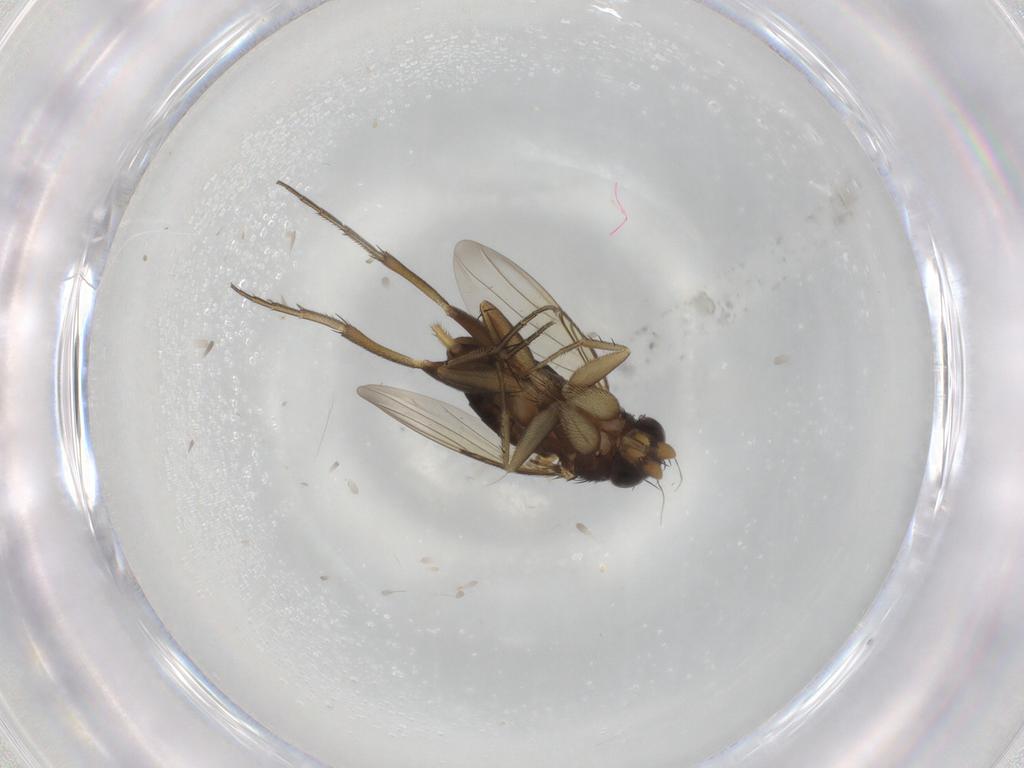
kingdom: Animalia
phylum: Arthropoda
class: Insecta
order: Diptera
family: Phoridae
